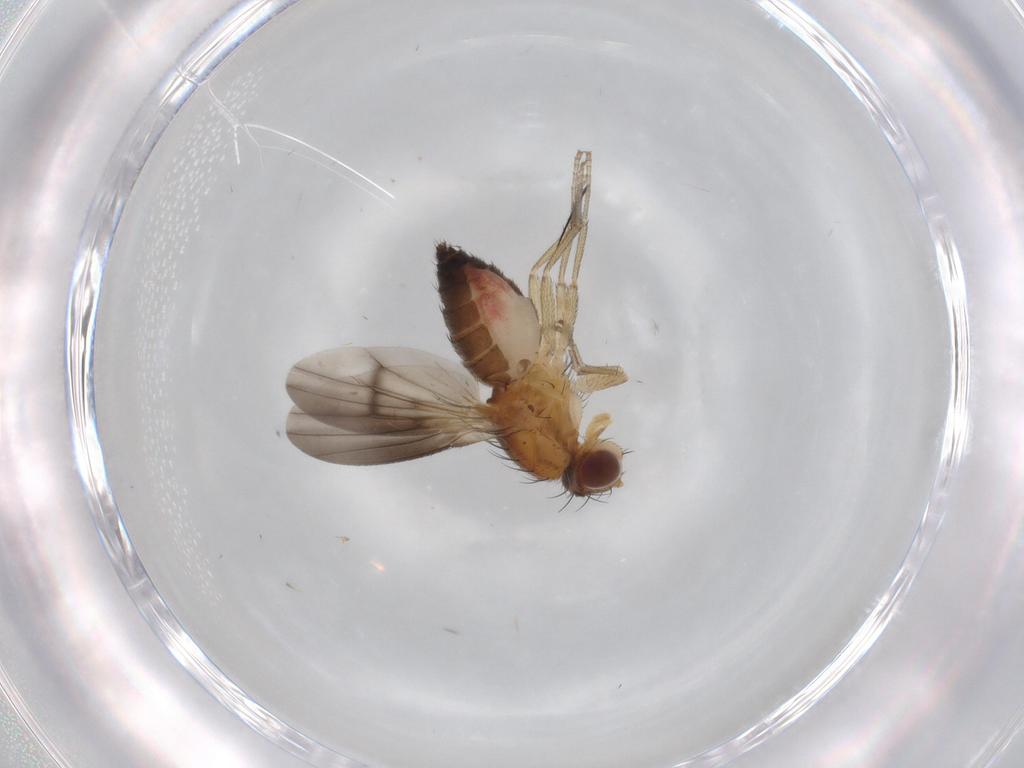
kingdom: Animalia
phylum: Arthropoda
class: Insecta
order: Diptera
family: Heleomyzidae
